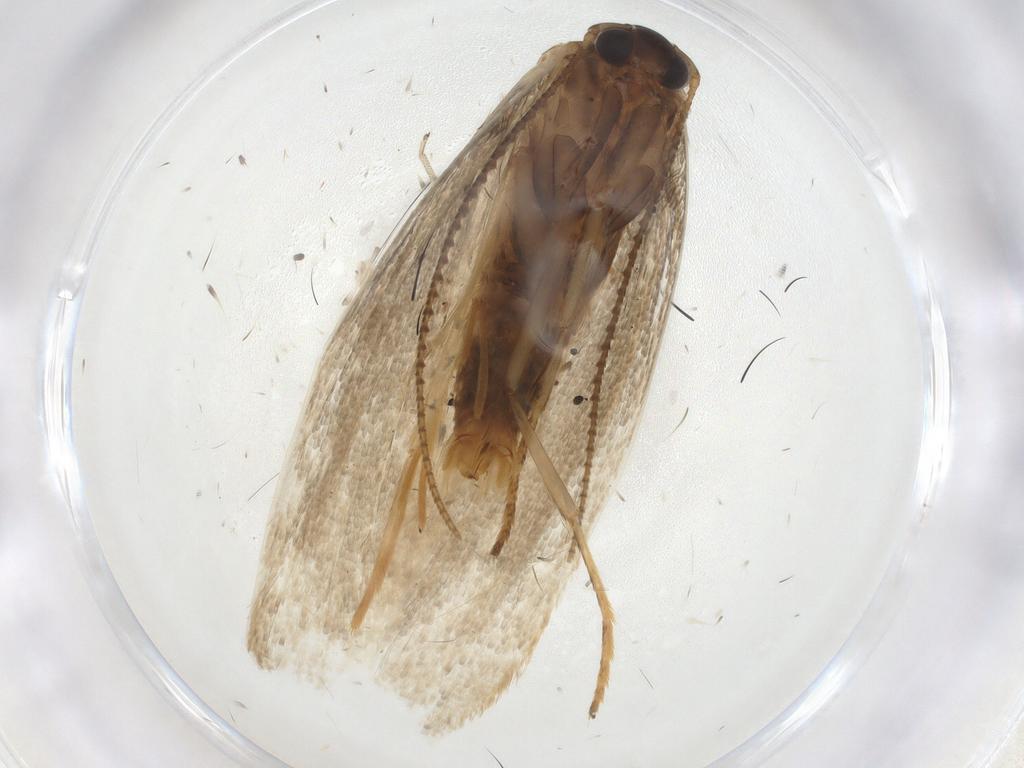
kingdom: Animalia
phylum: Arthropoda
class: Insecta
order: Lepidoptera
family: Erebidae
